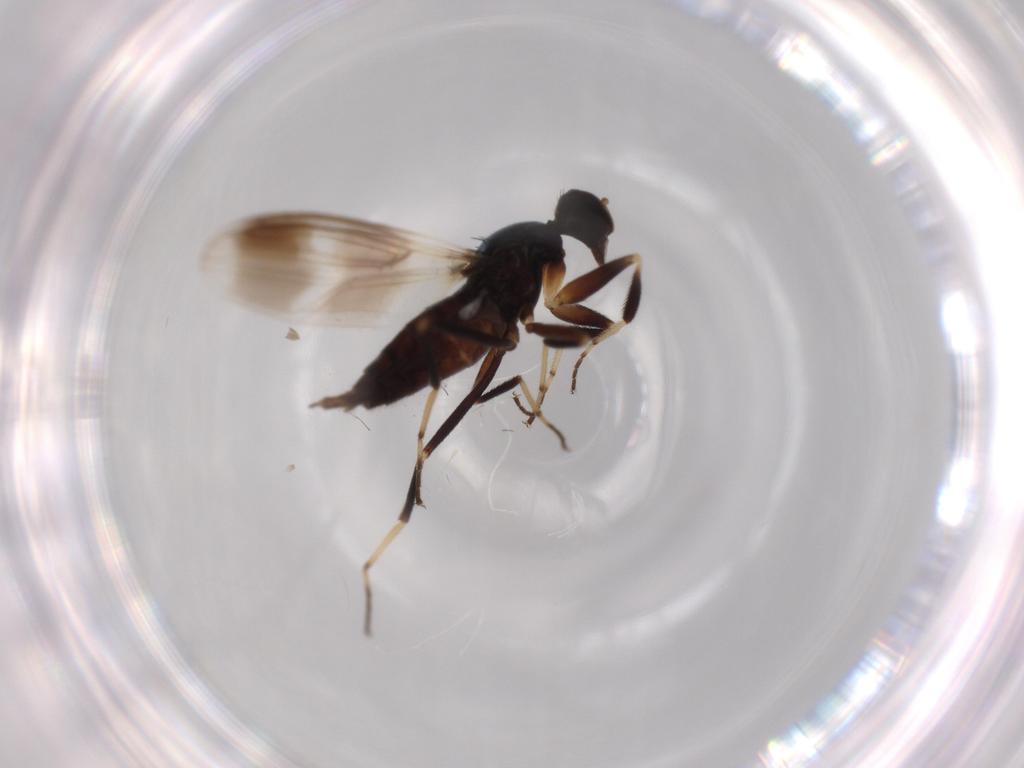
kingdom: Animalia
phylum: Arthropoda
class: Insecta
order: Diptera
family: Hybotidae
